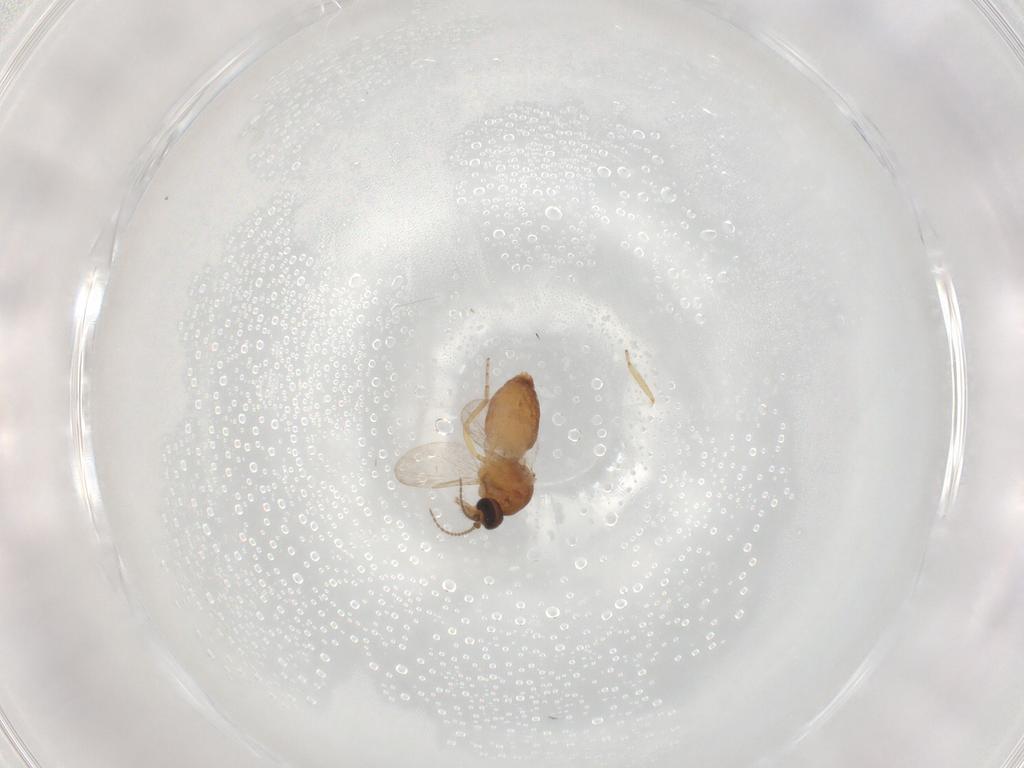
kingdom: Animalia
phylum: Arthropoda
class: Insecta
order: Diptera
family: Ceratopogonidae
